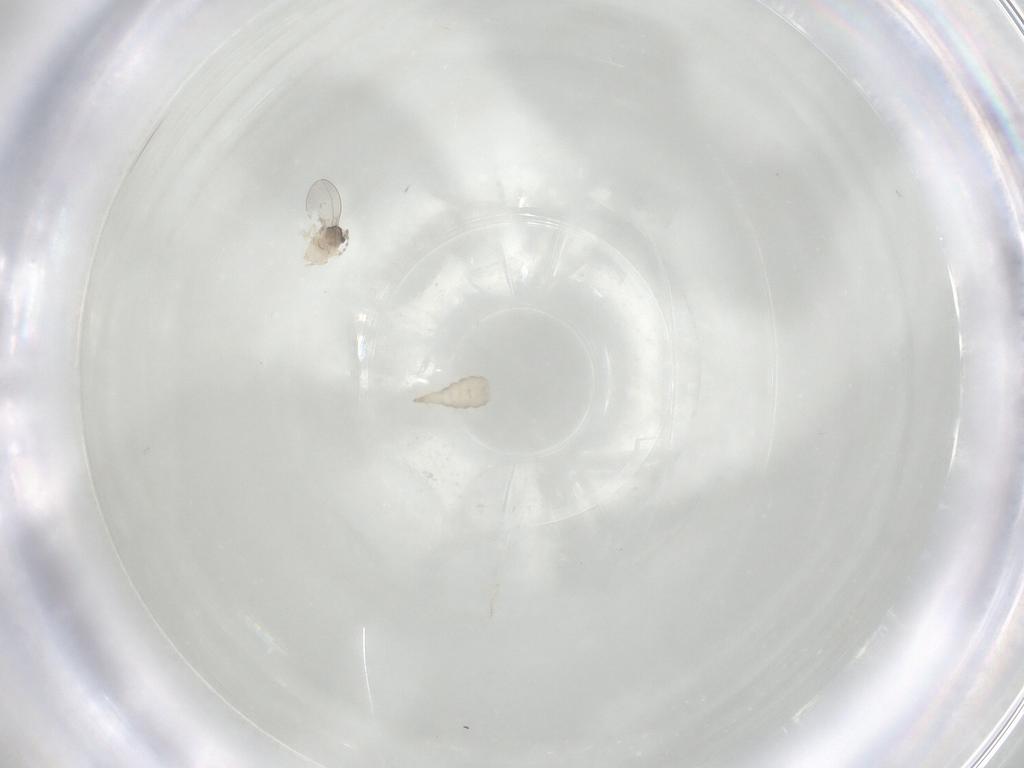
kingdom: Animalia
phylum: Arthropoda
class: Insecta
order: Diptera
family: Cecidomyiidae
